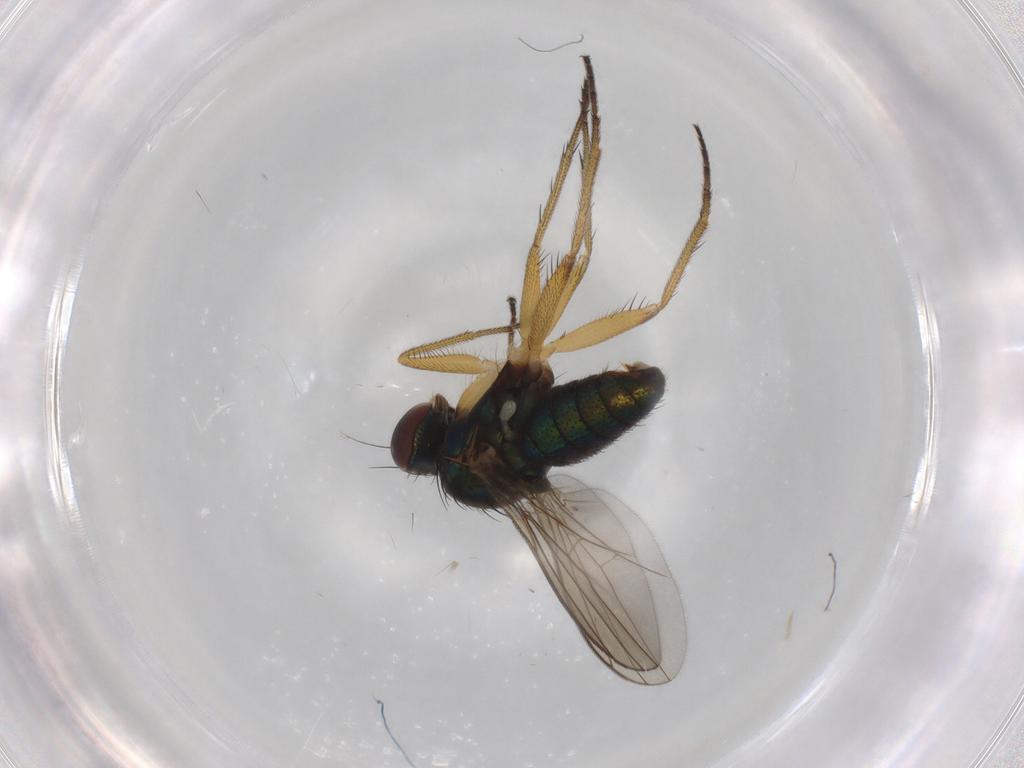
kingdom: Animalia
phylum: Arthropoda
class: Insecta
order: Diptera
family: Dolichopodidae
